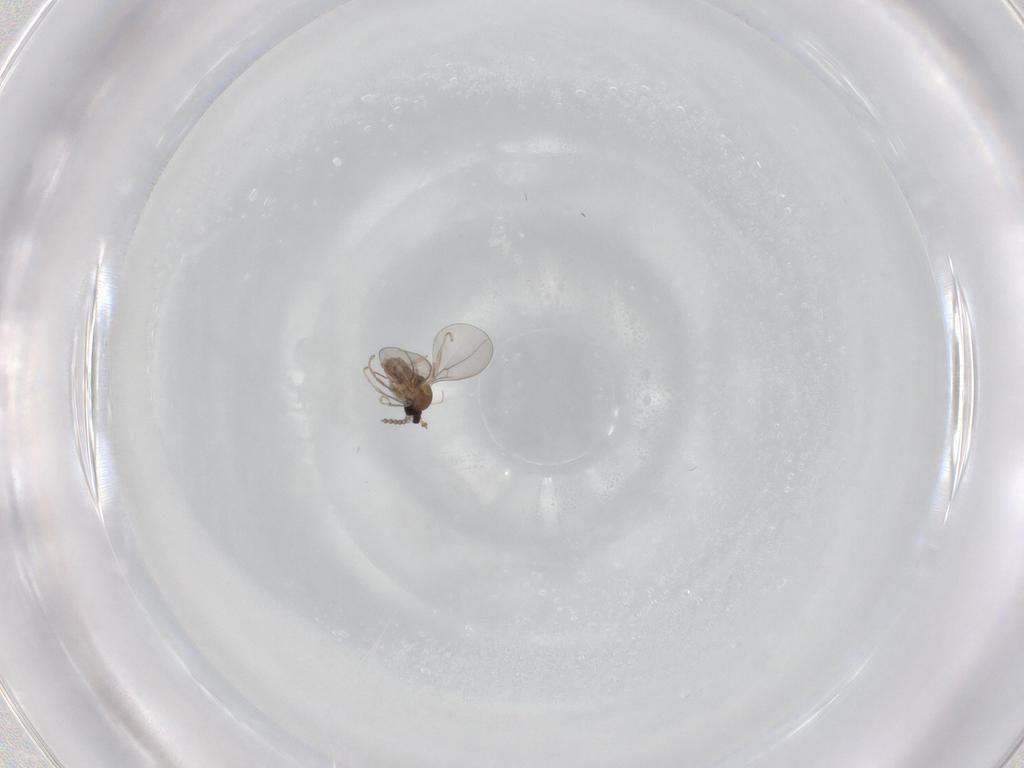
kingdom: Animalia
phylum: Arthropoda
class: Insecta
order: Diptera
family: Cecidomyiidae
